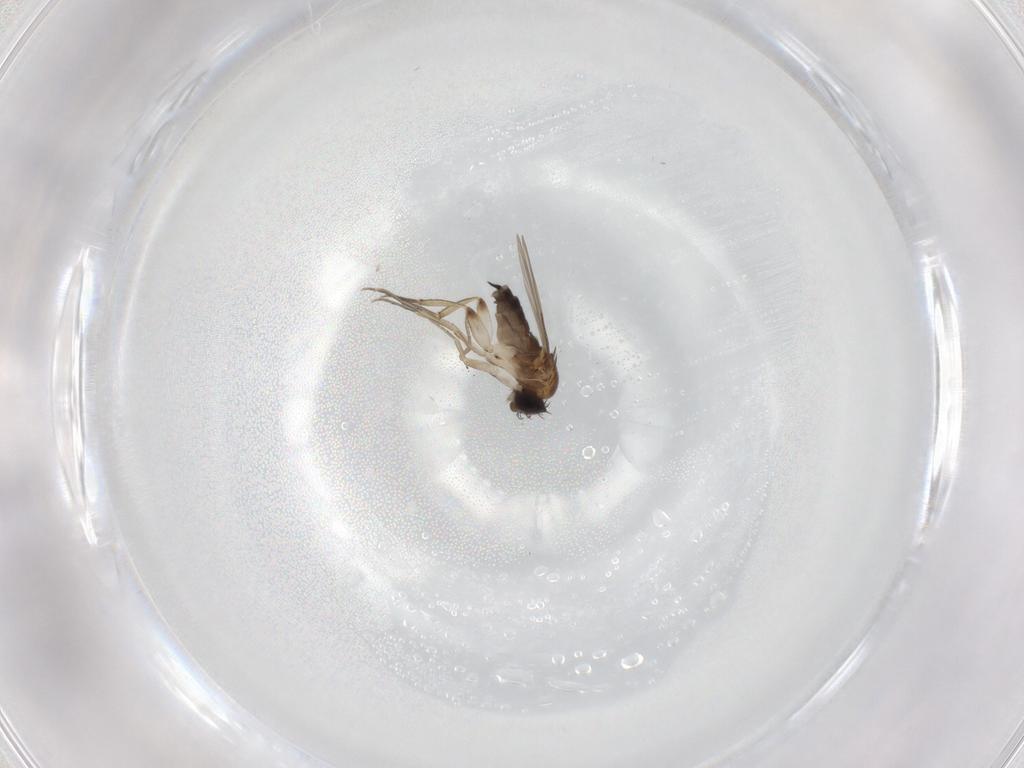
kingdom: Animalia
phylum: Arthropoda
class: Insecta
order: Diptera
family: Phoridae
